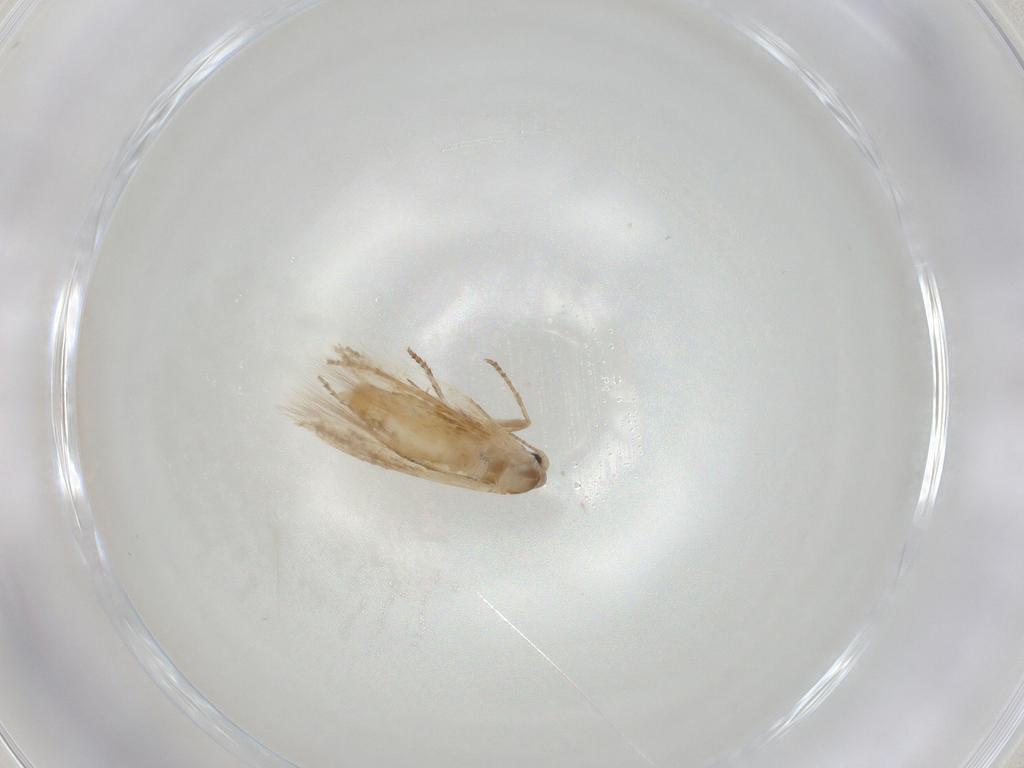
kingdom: Animalia
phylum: Arthropoda
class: Insecta
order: Lepidoptera
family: Bucculatricidae
